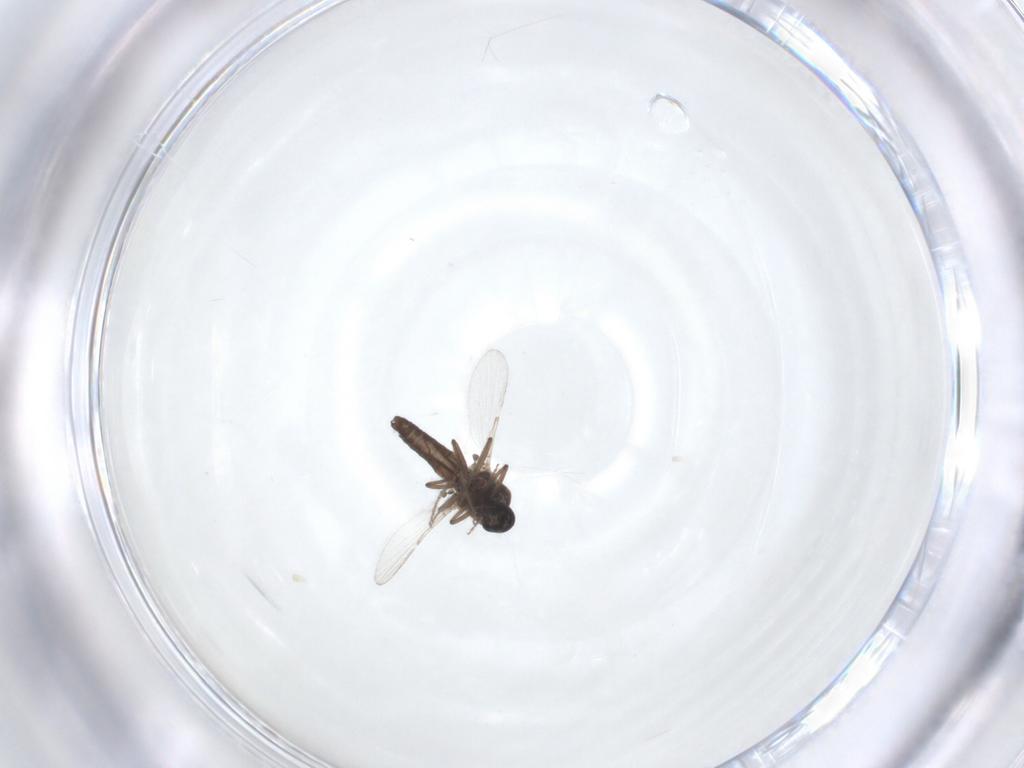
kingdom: Animalia
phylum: Arthropoda
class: Insecta
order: Diptera
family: Ceratopogonidae
